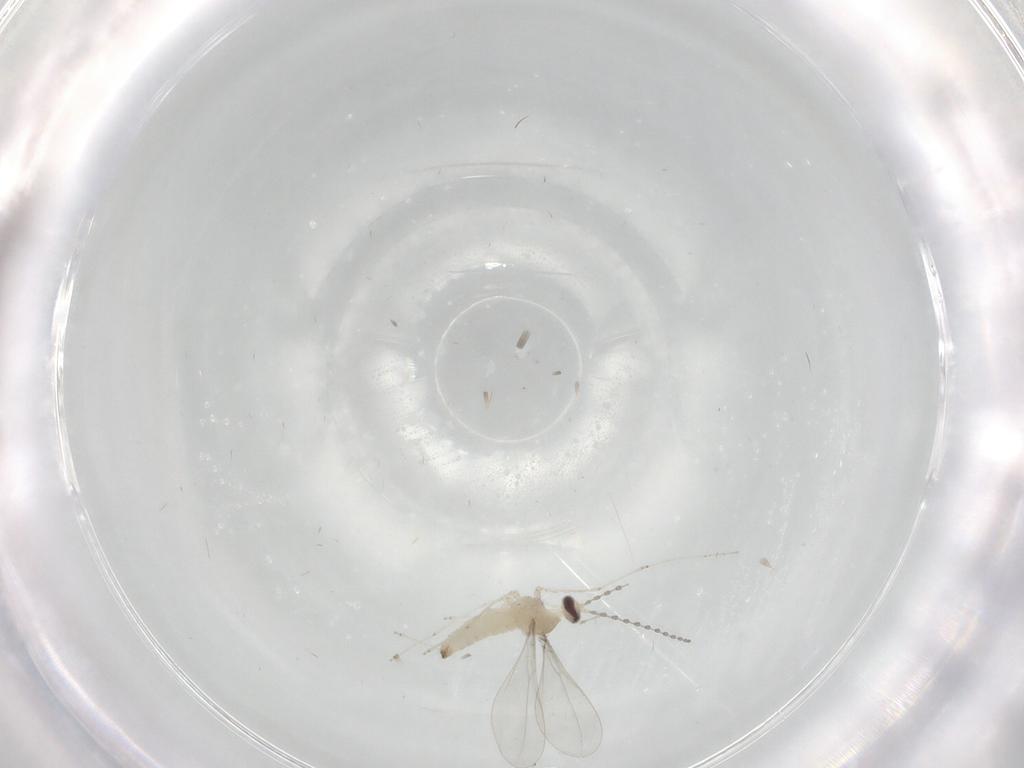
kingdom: Animalia
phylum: Arthropoda
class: Insecta
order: Diptera
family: Cecidomyiidae
